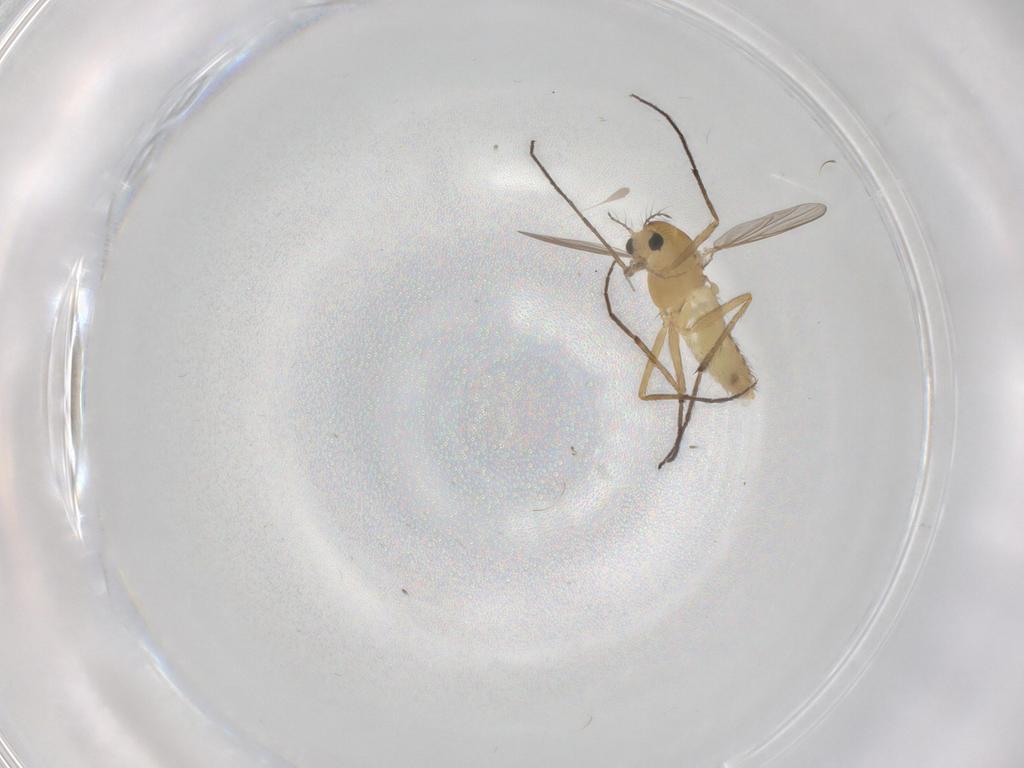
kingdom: Animalia
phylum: Arthropoda
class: Insecta
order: Diptera
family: Chironomidae
